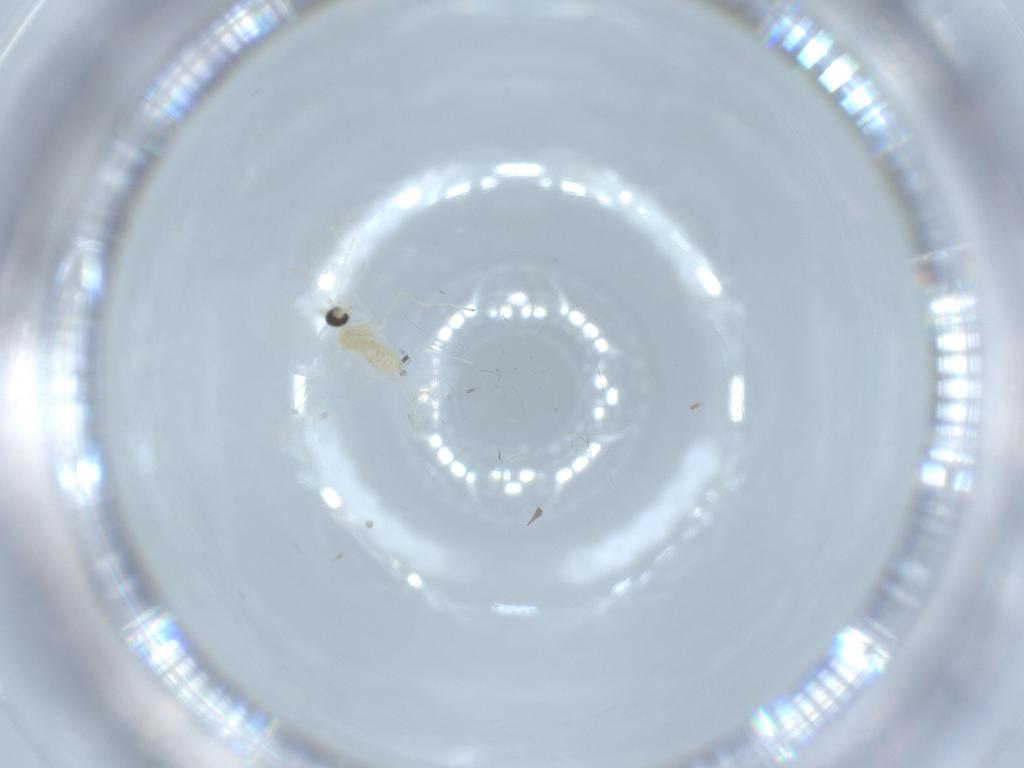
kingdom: Animalia
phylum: Arthropoda
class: Insecta
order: Diptera
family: Cecidomyiidae
